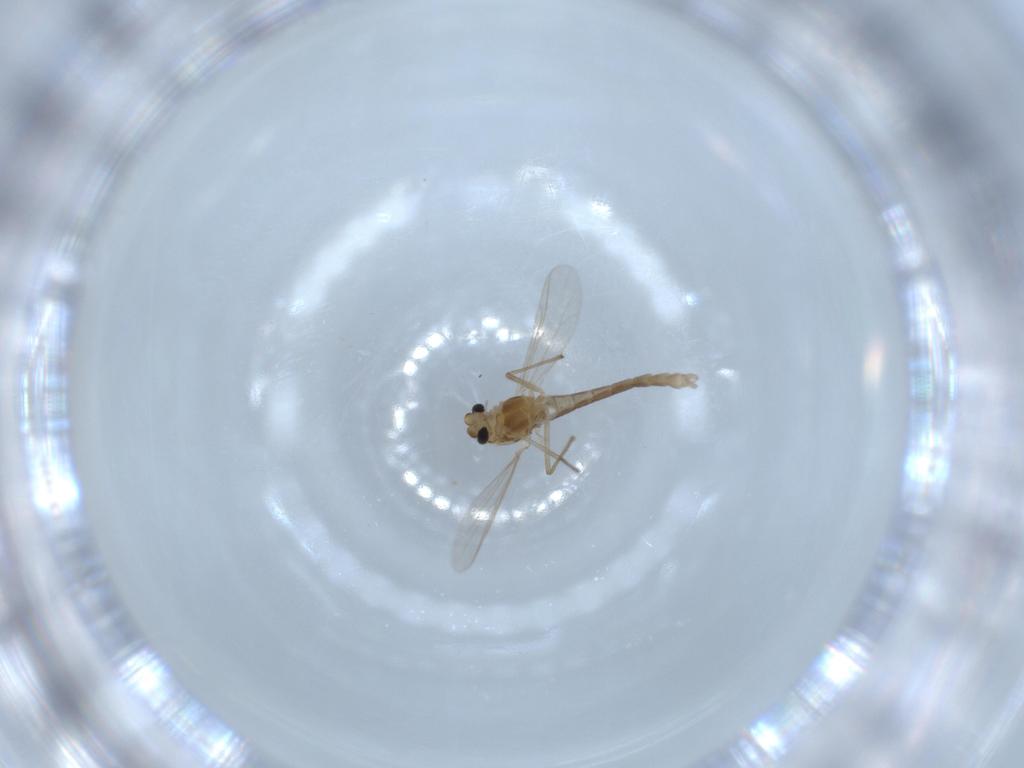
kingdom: Animalia
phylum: Arthropoda
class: Insecta
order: Diptera
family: Chironomidae
